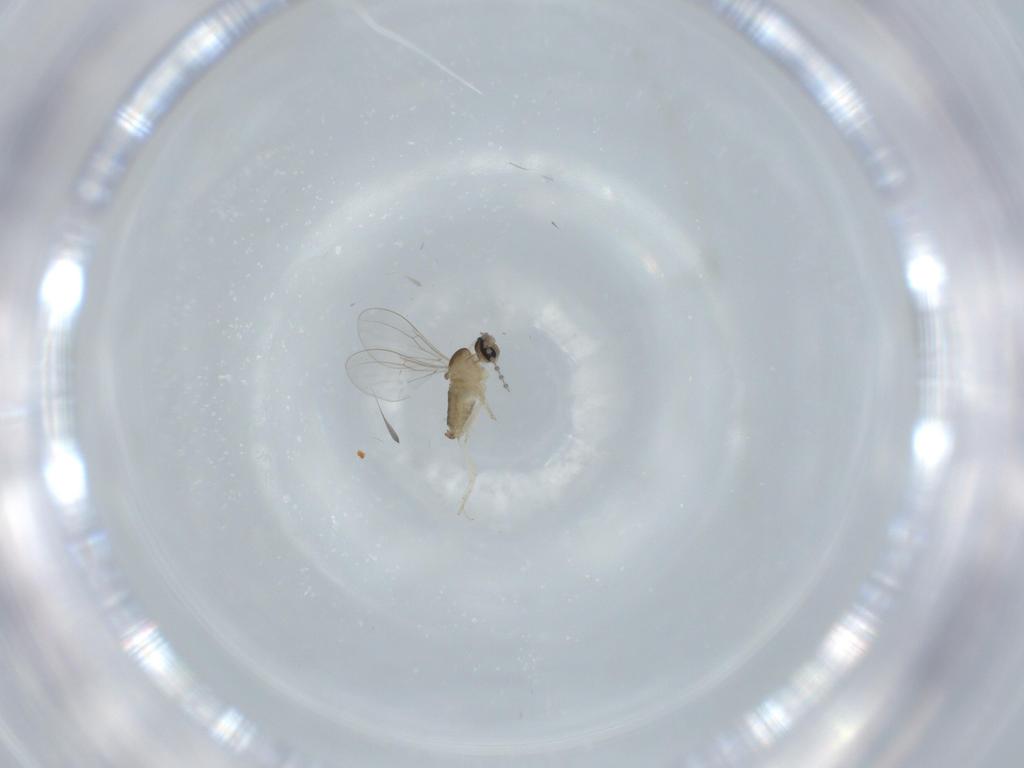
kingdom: Animalia
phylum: Arthropoda
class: Insecta
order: Diptera
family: Cecidomyiidae
